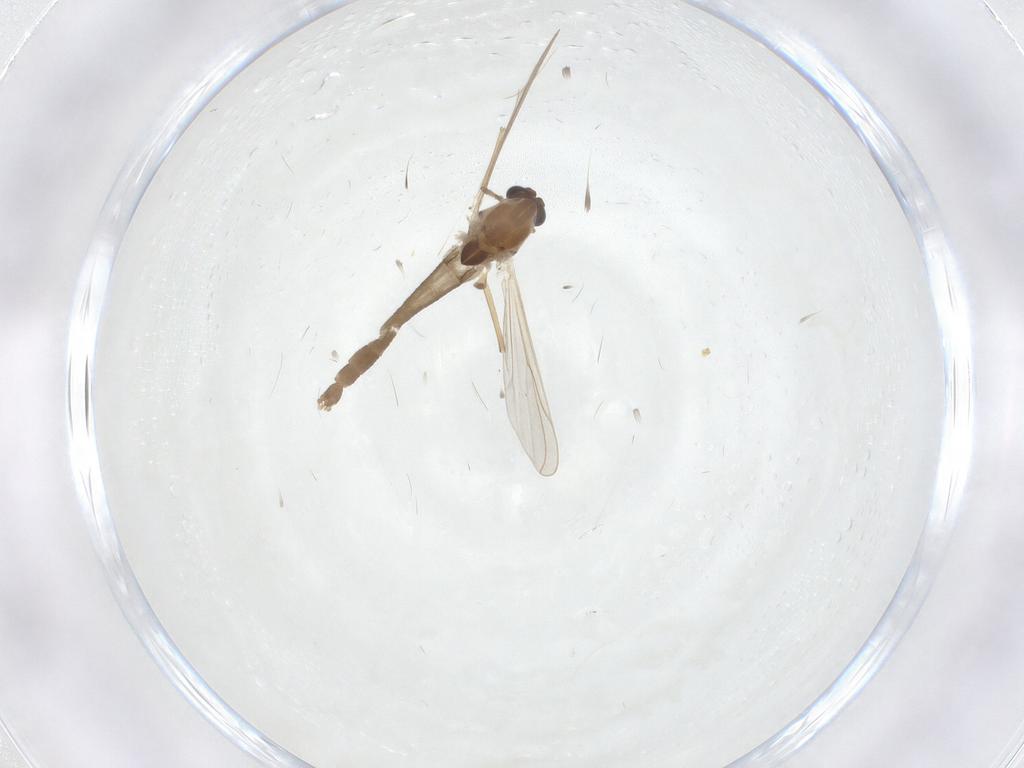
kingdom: Animalia
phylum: Arthropoda
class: Insecta
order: Diptera
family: Chironomidae
